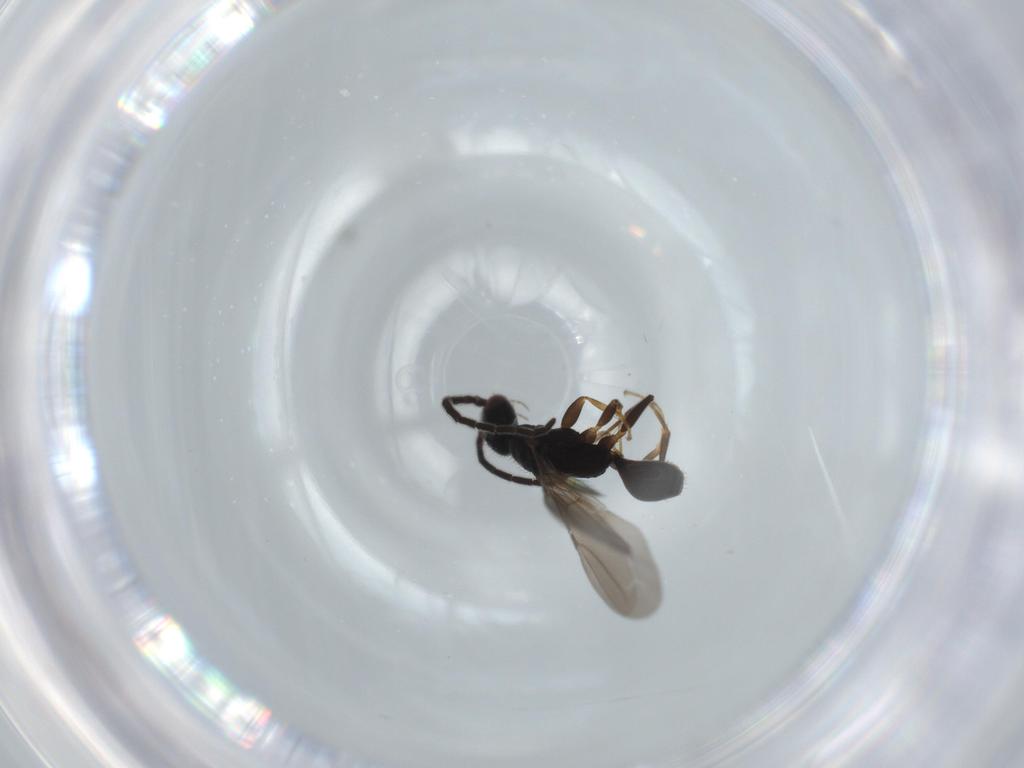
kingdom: Animalia
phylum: Arthropoda
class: Insecta
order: Hymenoptera
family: Bethylidae
